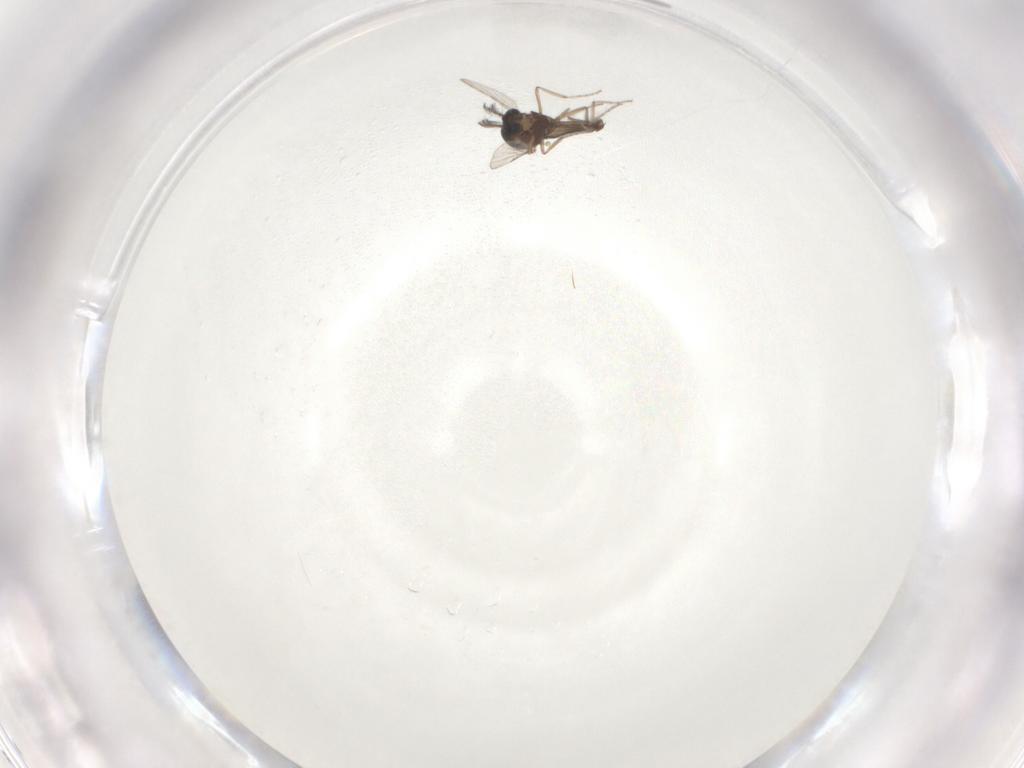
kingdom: Animalia
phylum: Arthropoda
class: Insecta
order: Diptera
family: Ceratopogonidae
